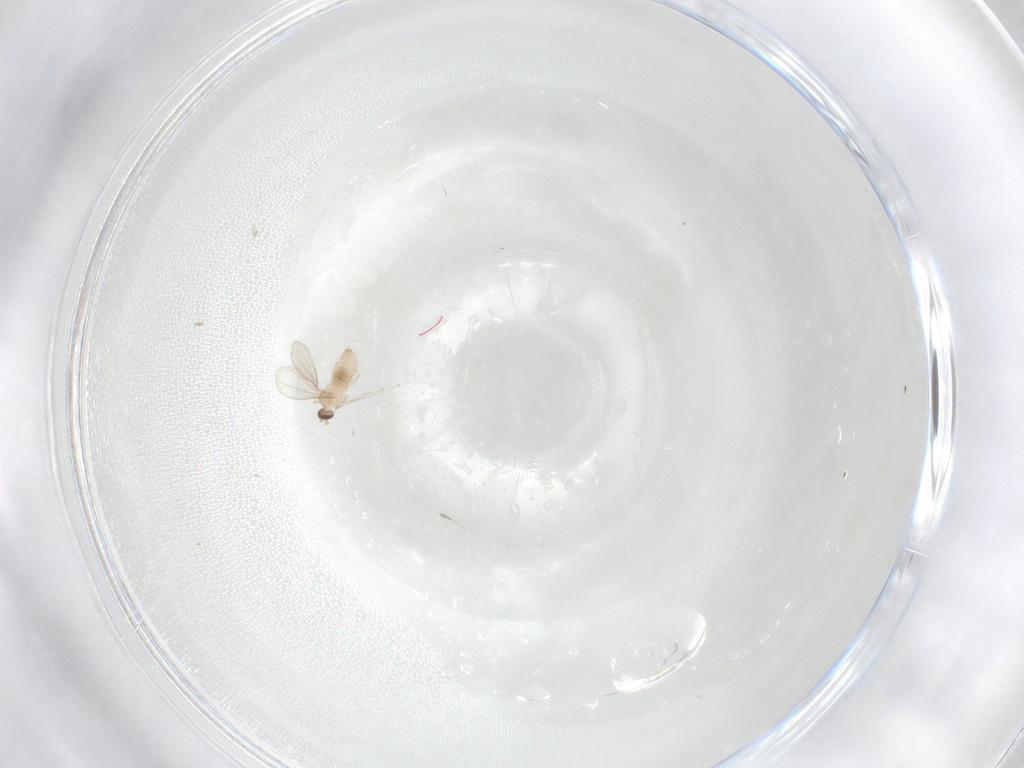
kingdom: Animalia
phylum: Arthropoda
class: Insecta
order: Diptera
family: Cecidomyiidae
